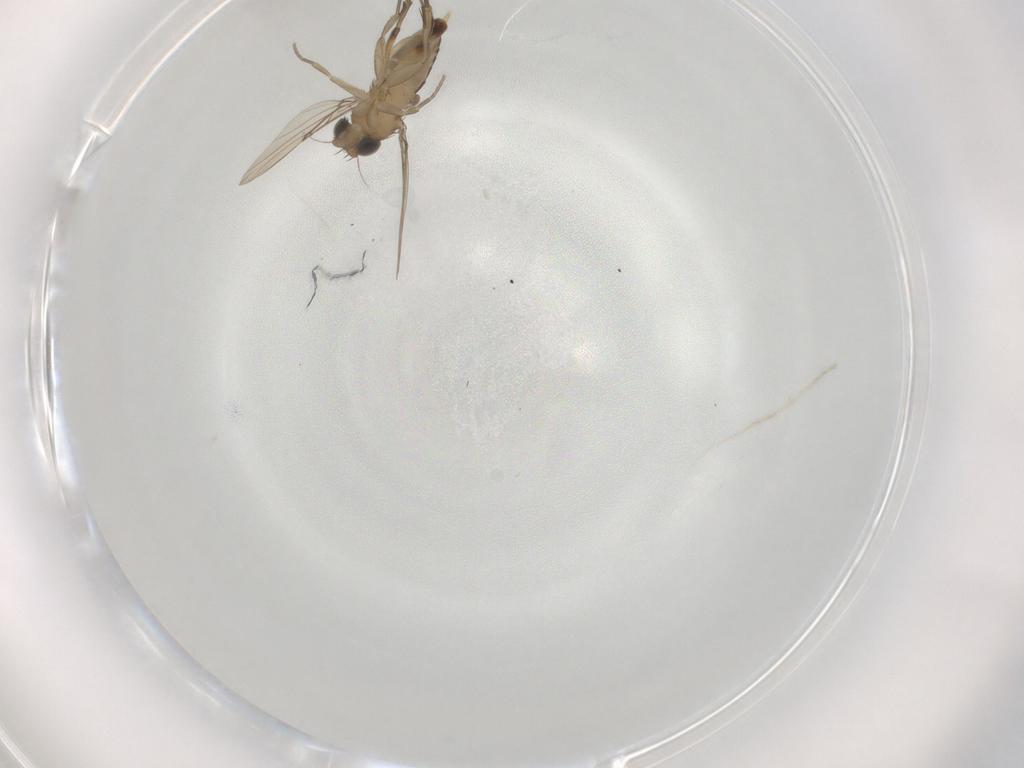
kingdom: Animalia
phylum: Arthropoda
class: Insecta
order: Diptera
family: Phoridae
